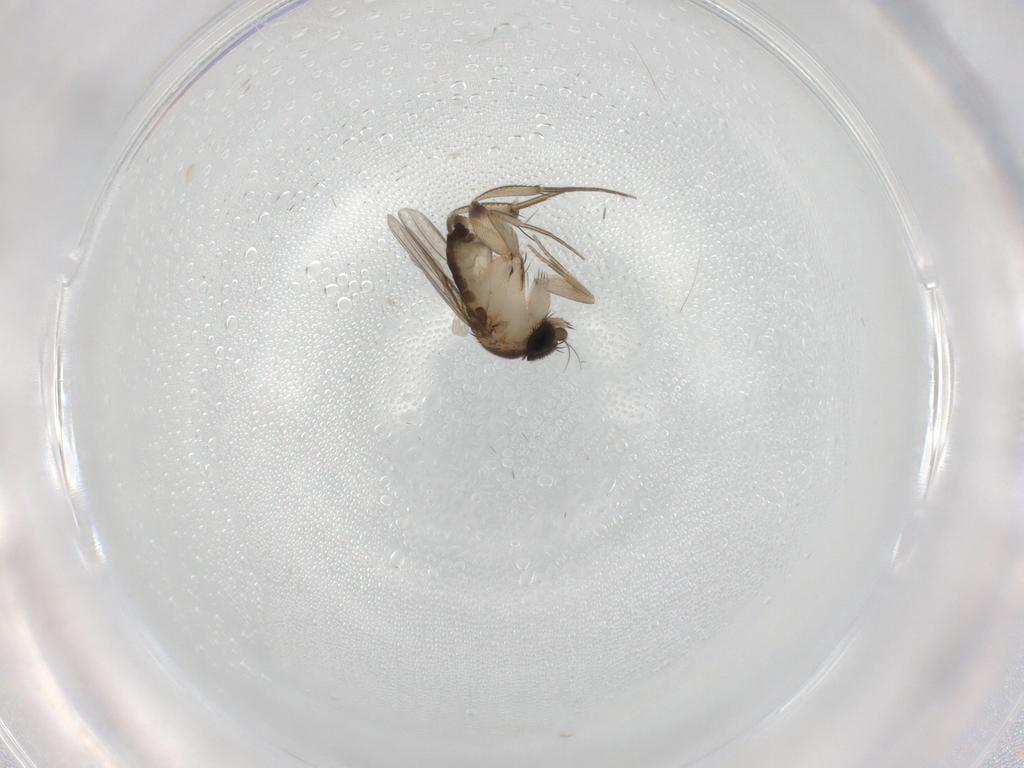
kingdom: Animalia
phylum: Arthropoda
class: Insecta
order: Diptera
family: Phoridae
